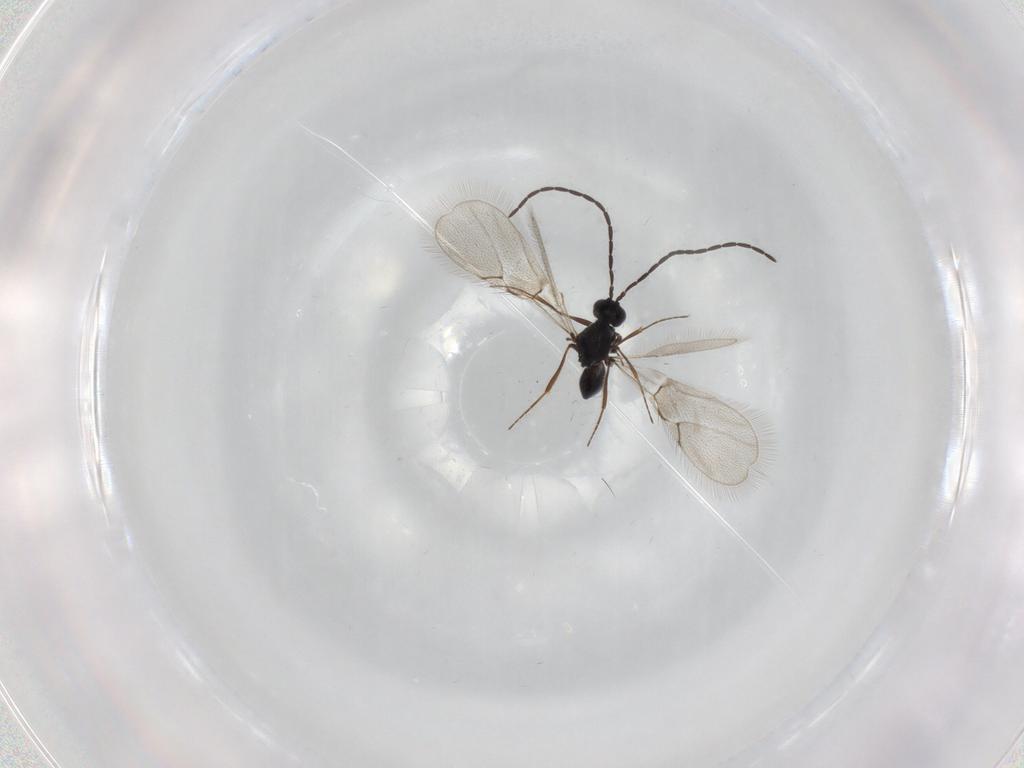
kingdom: Animalia
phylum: Arthropoda
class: Insecta
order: Hymenoptera
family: Figitidae
